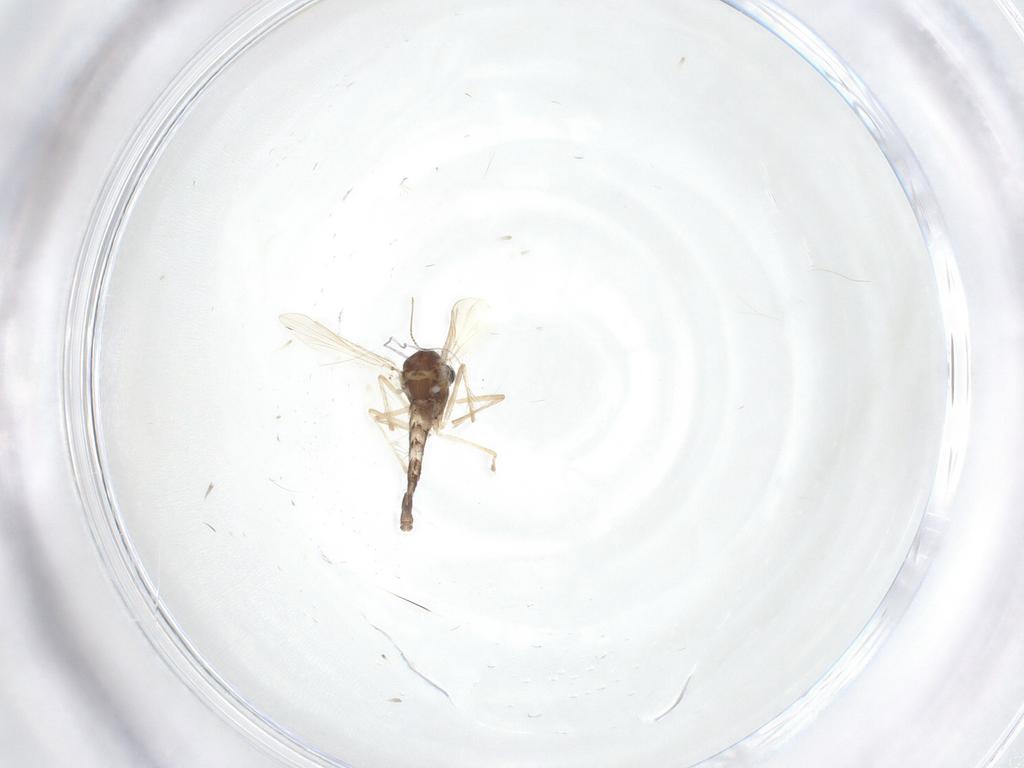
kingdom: Animalia
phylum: Arthropoda
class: Insecta
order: Diptera
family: Chironomidae
